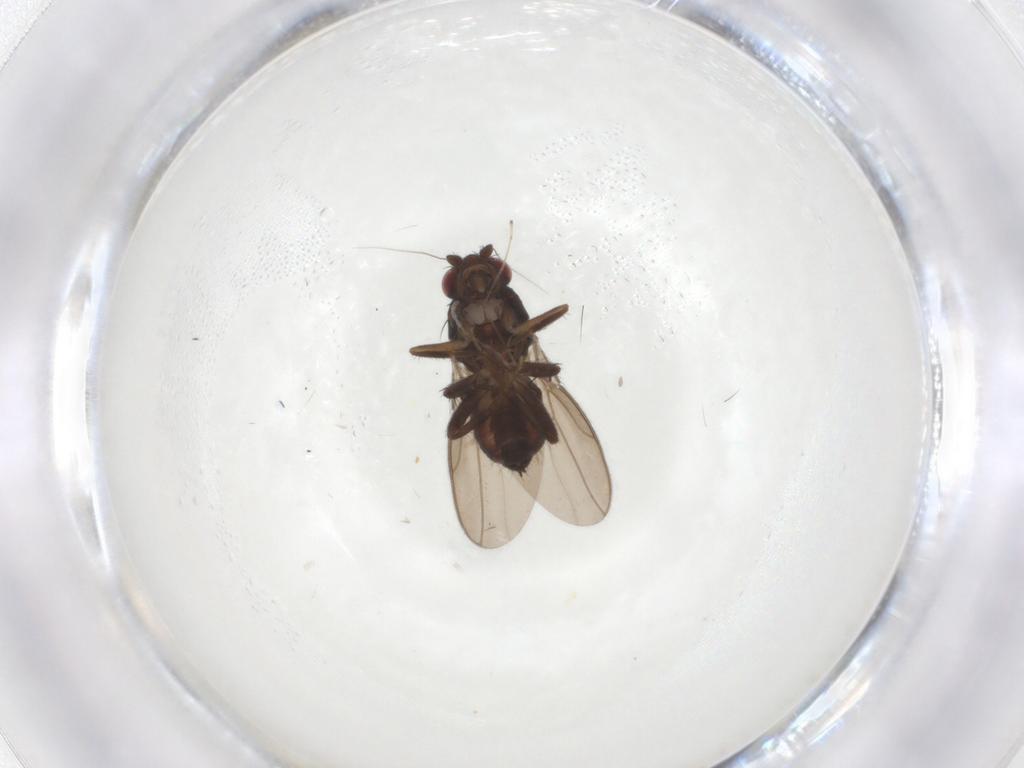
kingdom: Animalia
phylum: Arthropoda
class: Insecta
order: Diptera
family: Sphaeroceridae
